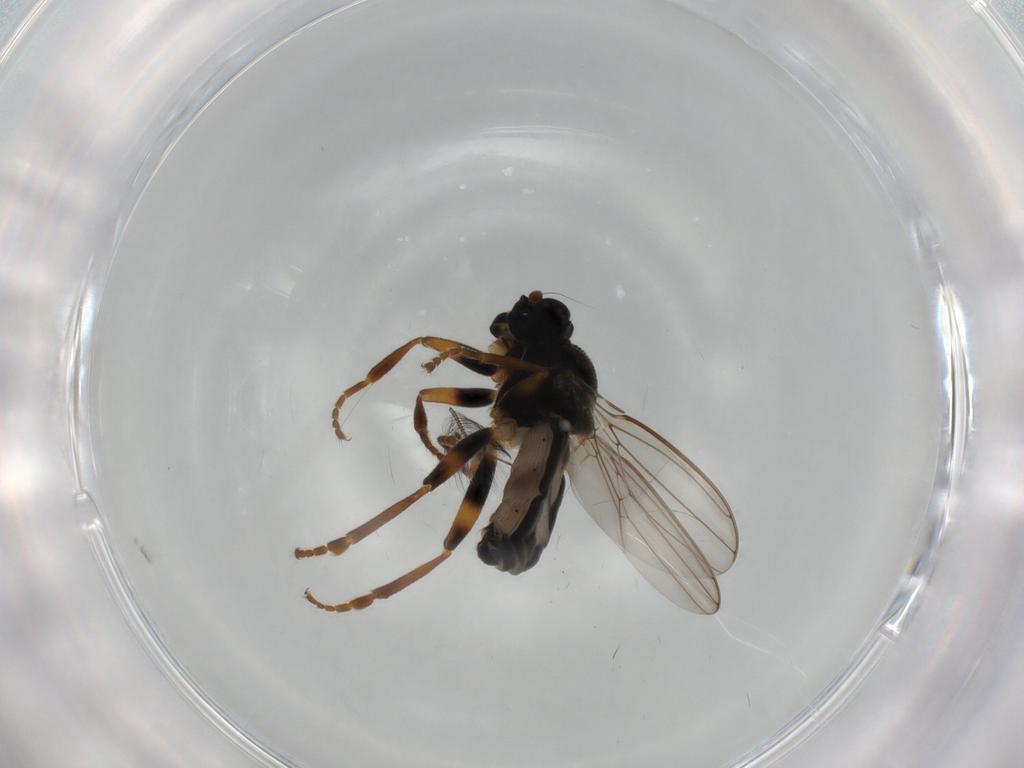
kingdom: Animalia
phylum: Arthropoda
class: Insecta
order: Diptera
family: Sphaeroceridae
